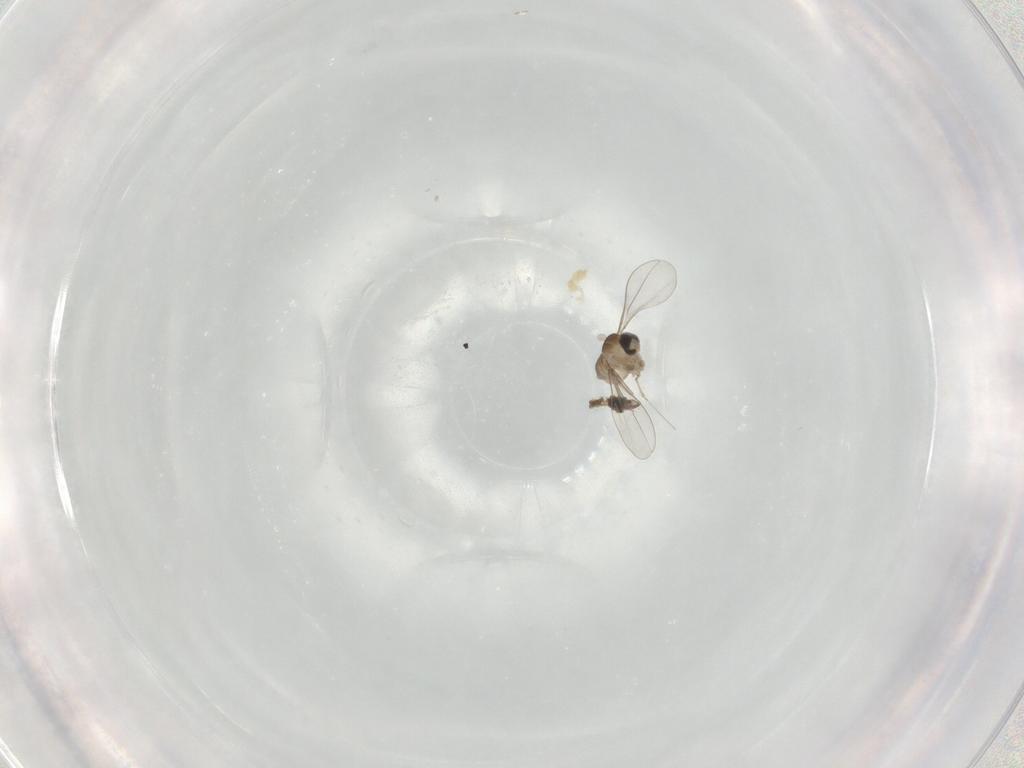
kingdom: Animalia
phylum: Arthropoda
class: Insecta
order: Diptera
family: Cecidomyiidae
